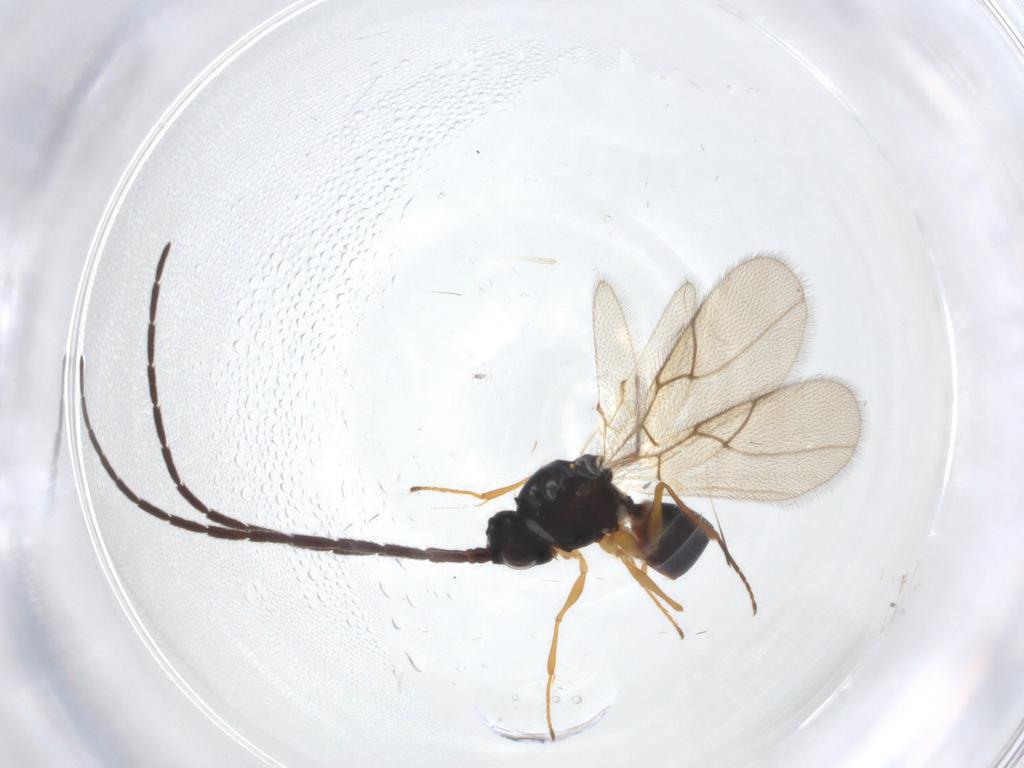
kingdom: Animalia
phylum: Arthropoda
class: Insecta
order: Hymenoptera
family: Figitidae
